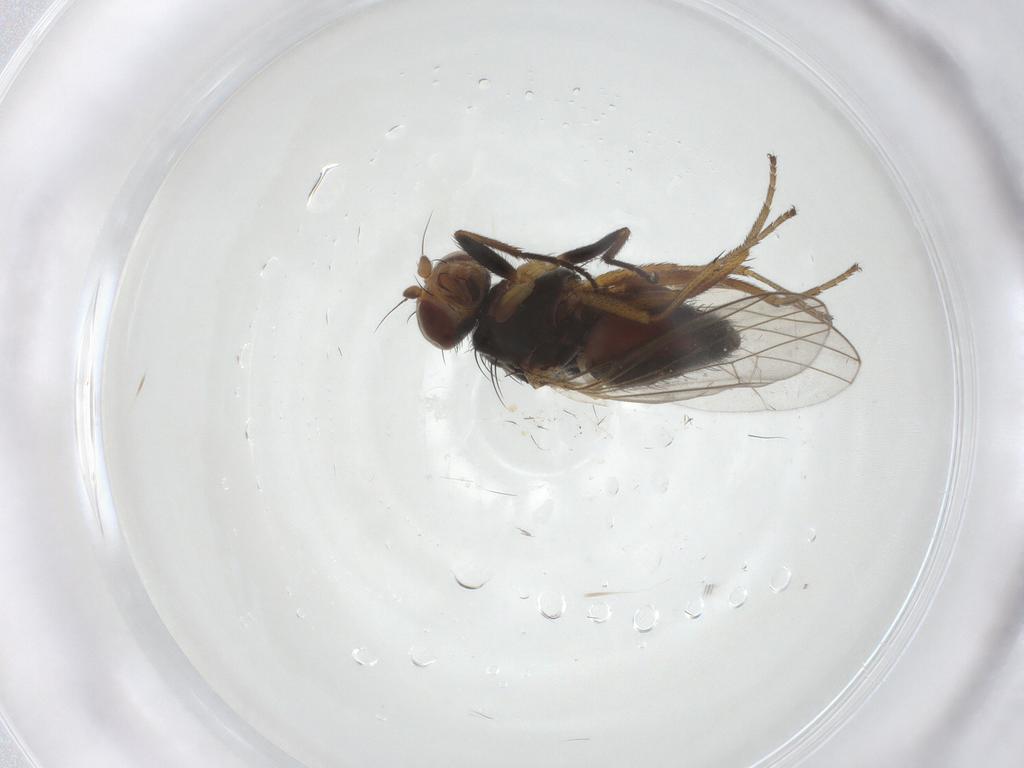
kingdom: Animalia
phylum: Arthropoda
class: Insecta
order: Diptera
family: Heleomyzidae
